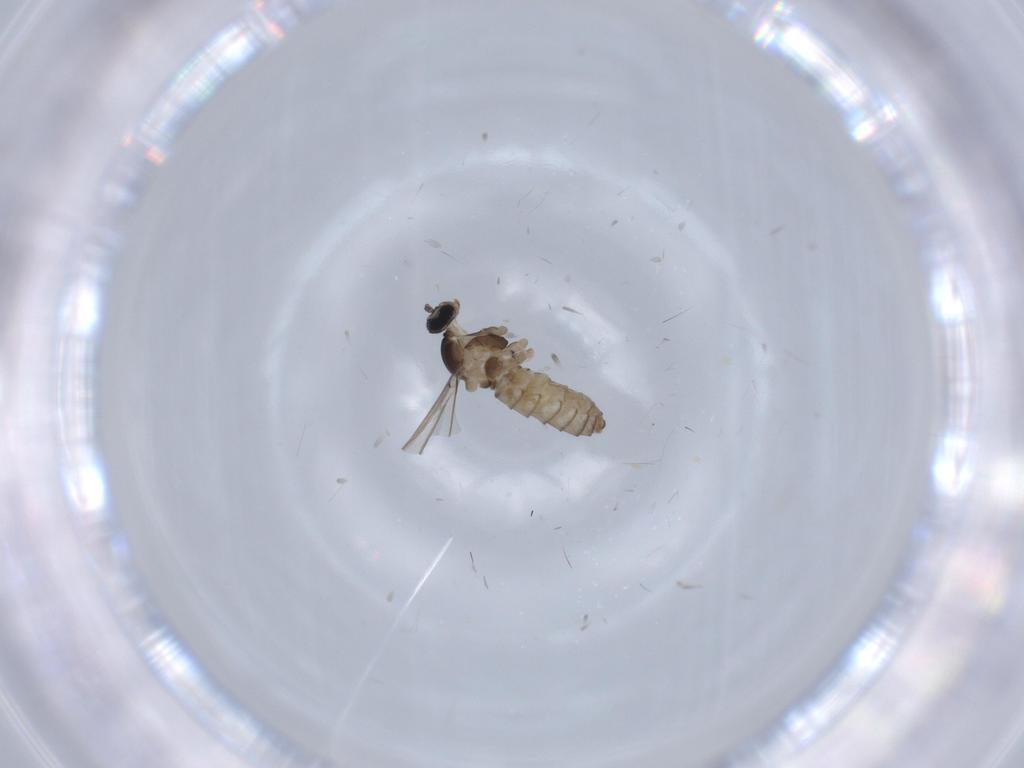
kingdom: Animalia
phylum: Arthropoda
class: Insecta
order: Diptera
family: Cecidomyiidae
